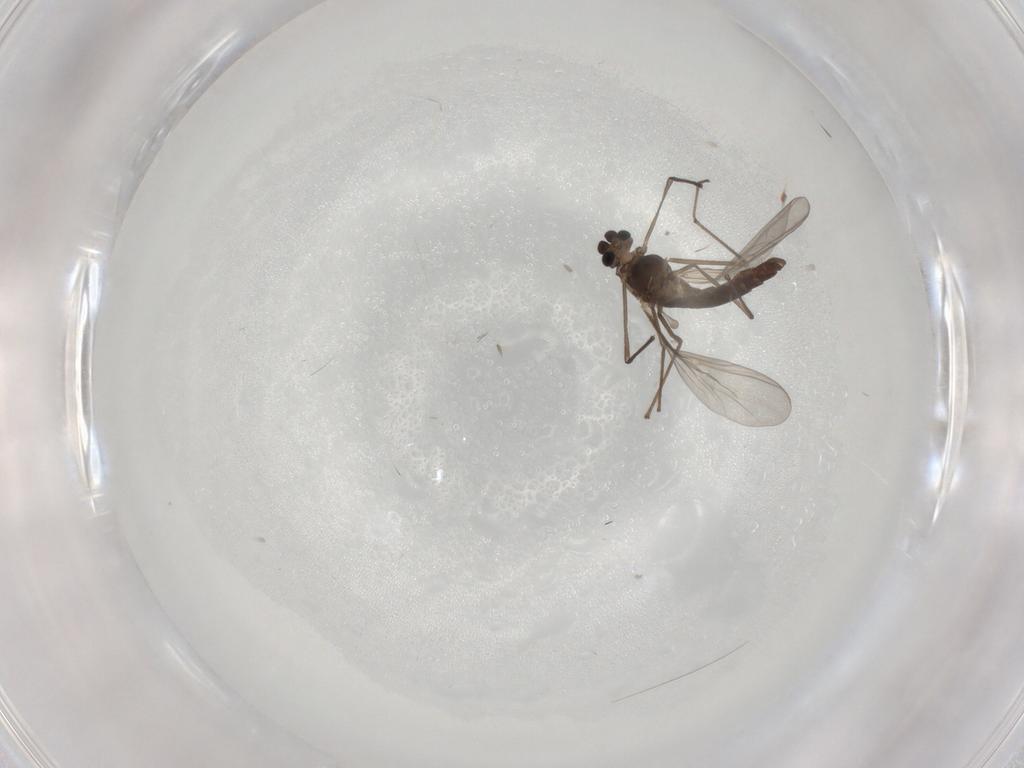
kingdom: Animalia
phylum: Arthropoda
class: Insecta
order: Diptera
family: Chironomidae
